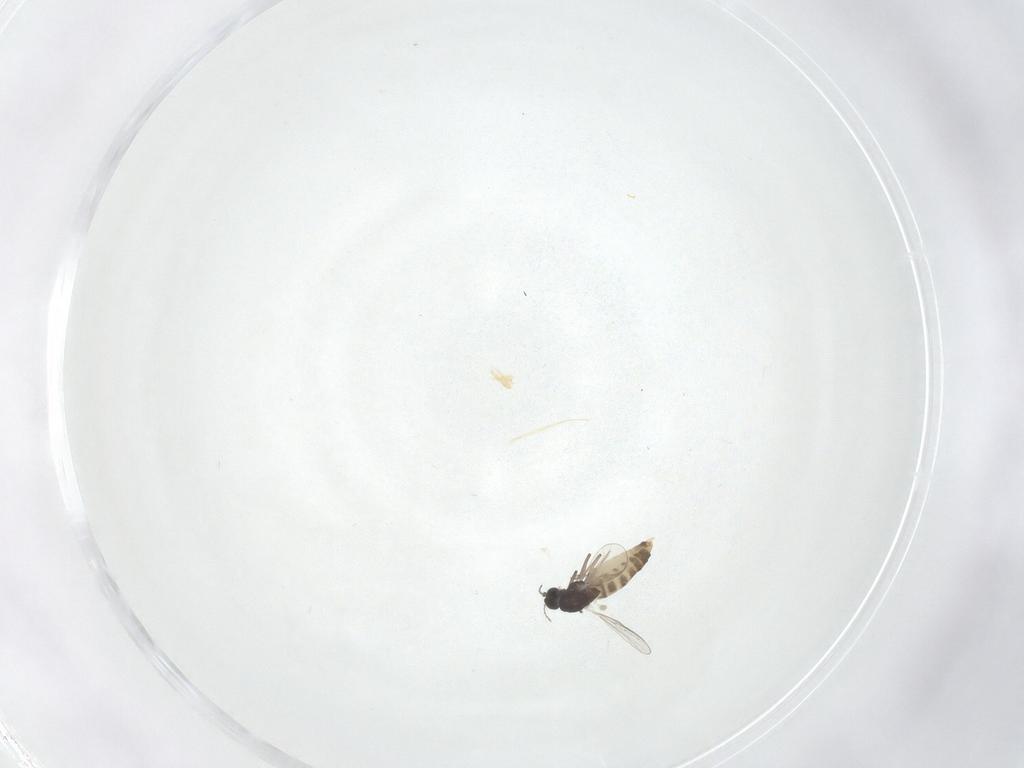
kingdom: Animalia
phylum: Arthropoda
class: Insecta
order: Diptera
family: Chironomidae
